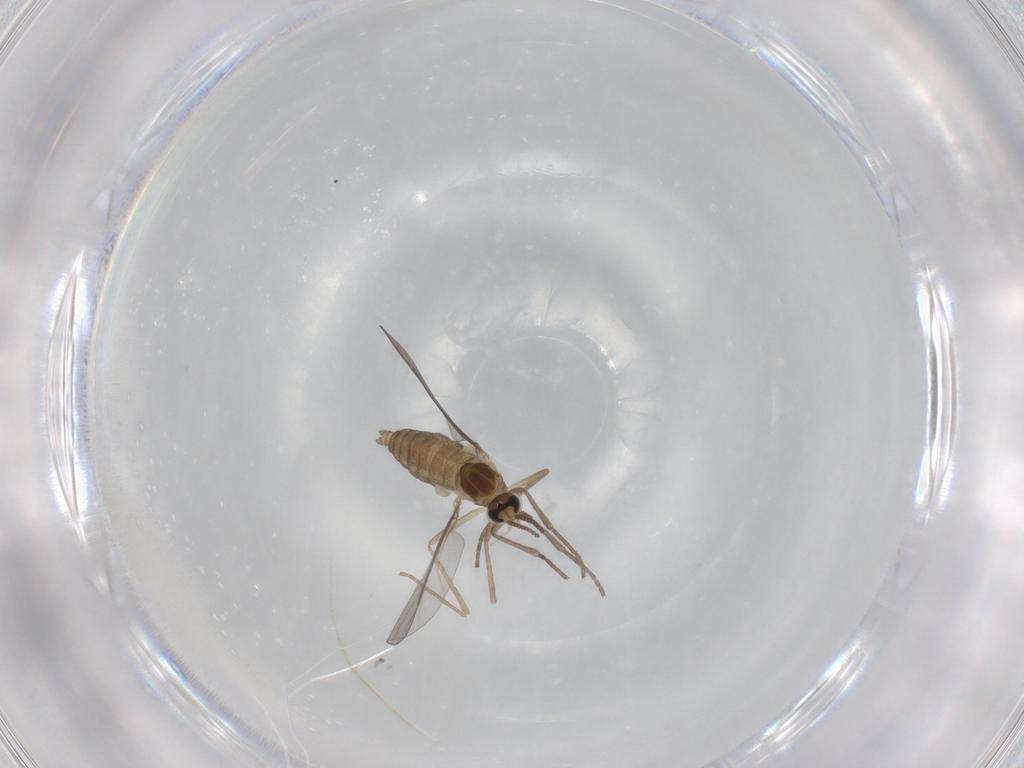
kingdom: Animalia
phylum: Arthropoda
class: Insecta
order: Diptera
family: Cecidomyiidae
